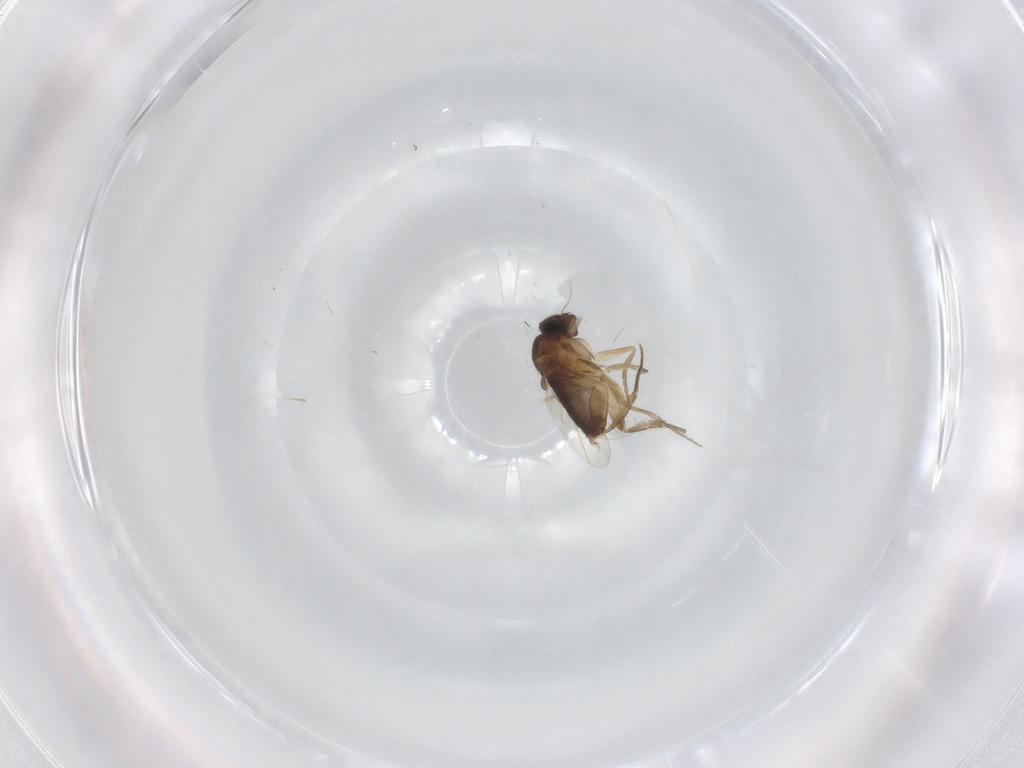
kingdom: Animalia
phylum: Arthropoda
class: Insecta
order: Diptera
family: Phoridae
